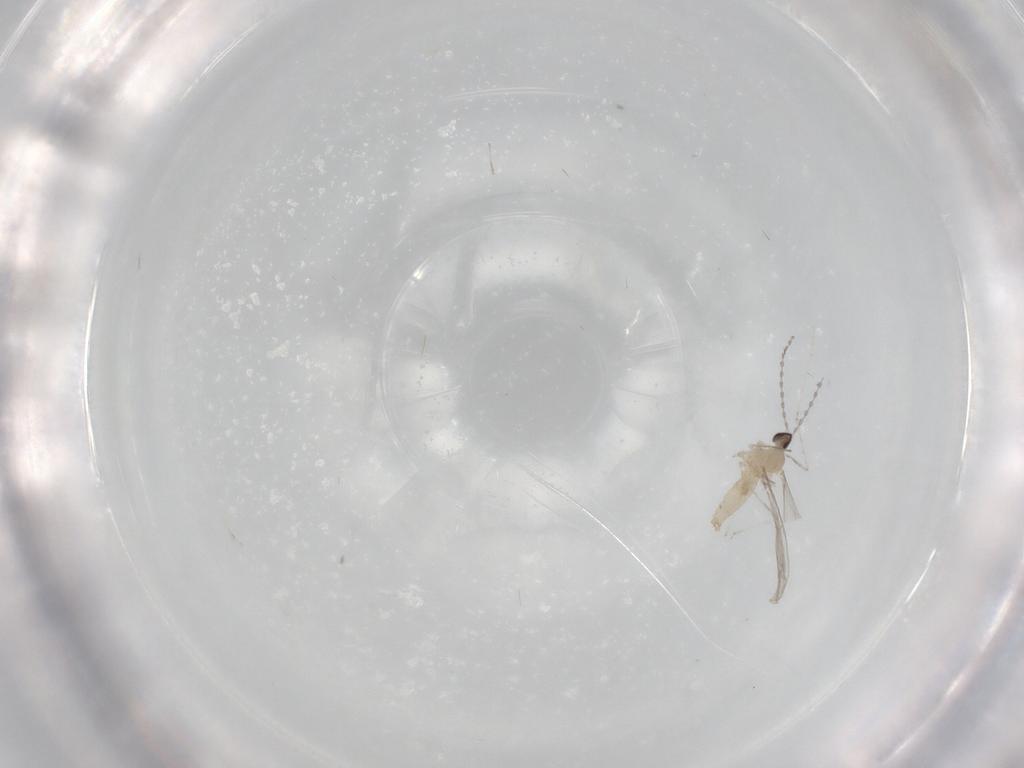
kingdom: Animalia
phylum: Arthropoda
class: Insecta
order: Diptera
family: Cecidomyiidae
